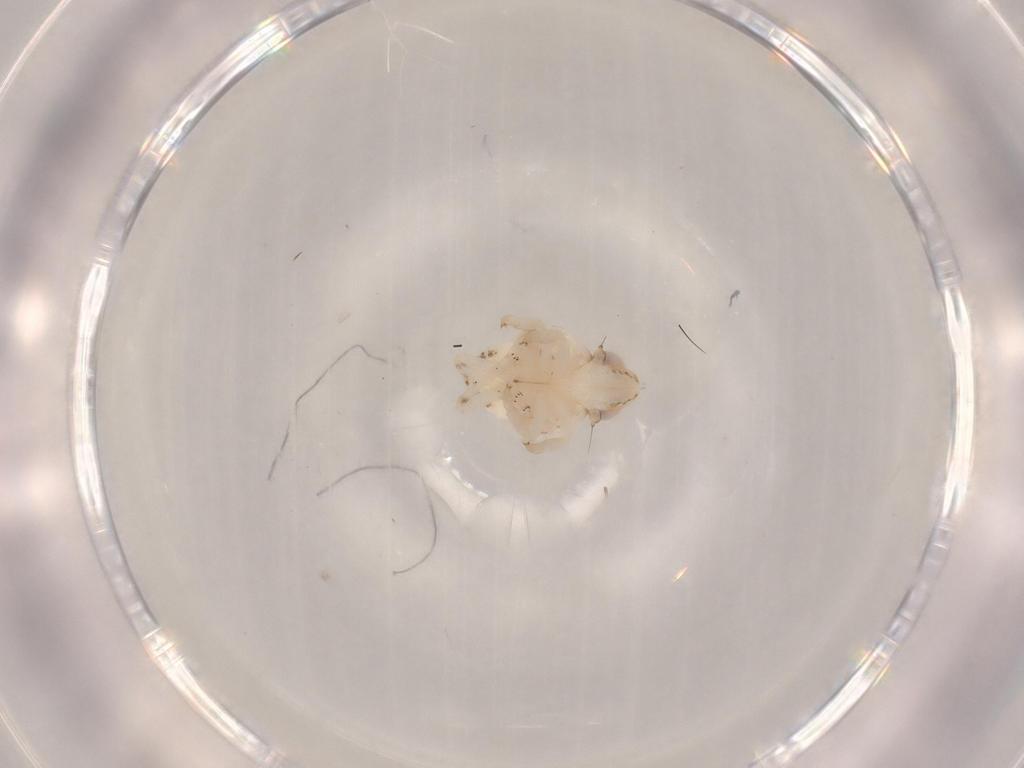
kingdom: Animalia
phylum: Arthropoda
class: Insecta
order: Hemiptera
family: Nogodinidae
